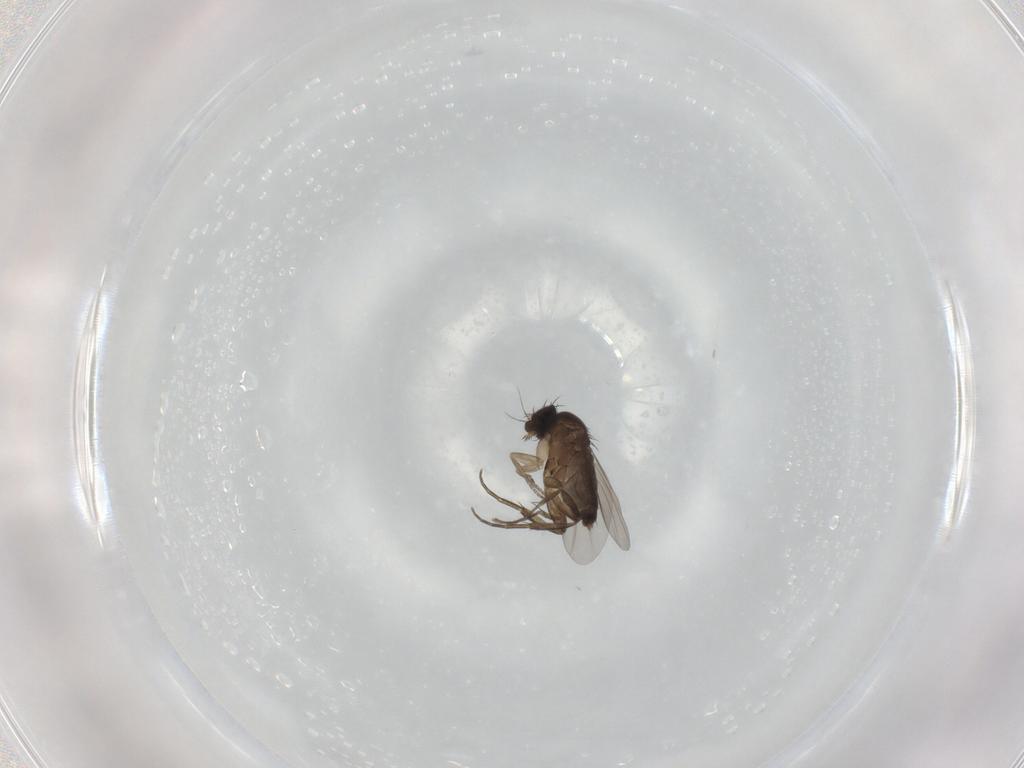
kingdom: Animalia
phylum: Arthropoda
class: Insecta
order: Diptera
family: Phoridae
